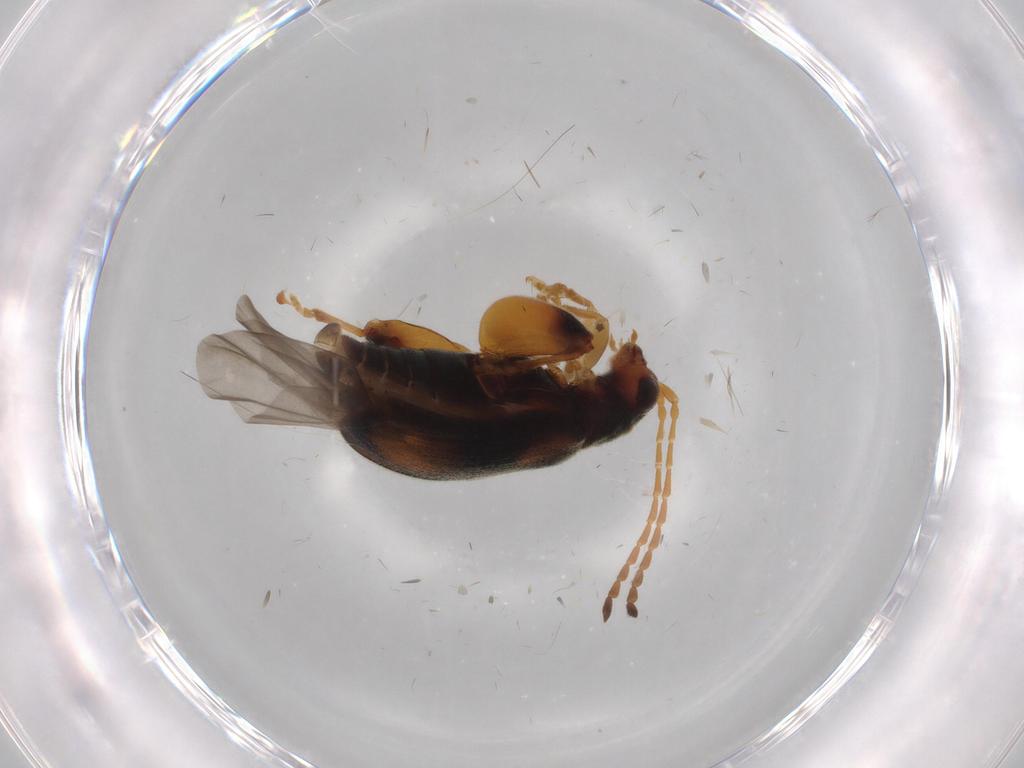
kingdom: Animalia
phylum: Arthropoda
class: Insecta
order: Coleoptera
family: Chrysomelidae
